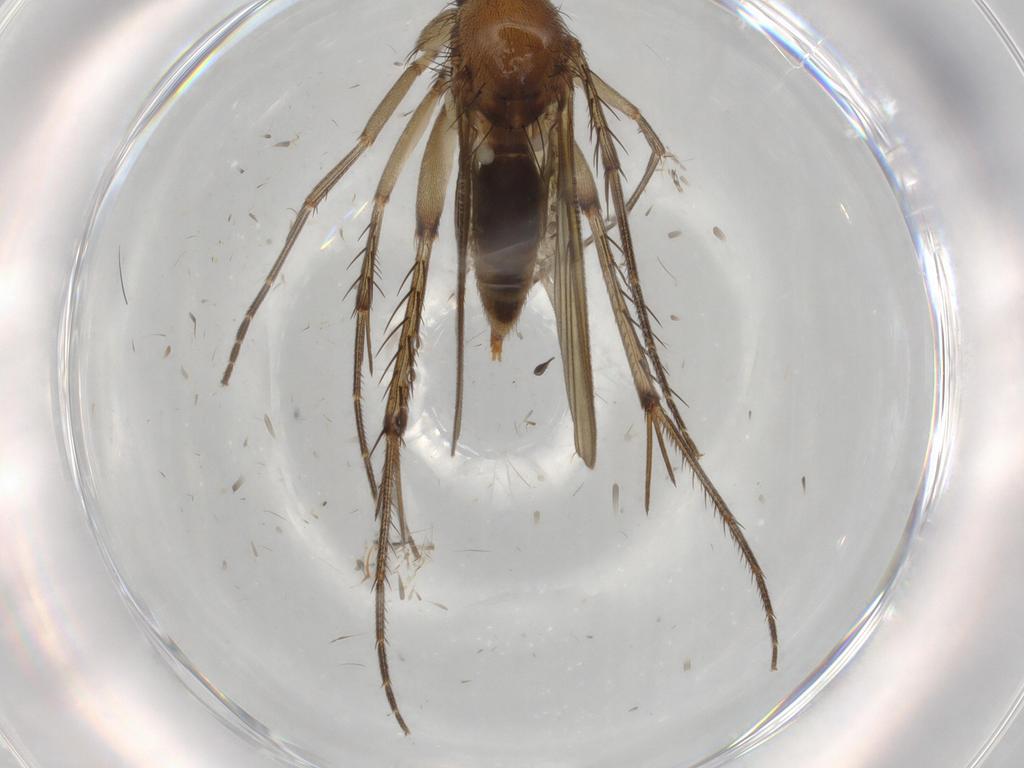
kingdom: Animalia
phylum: Arthropoda
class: Insecta
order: Diptera
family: Mycetophilidae
